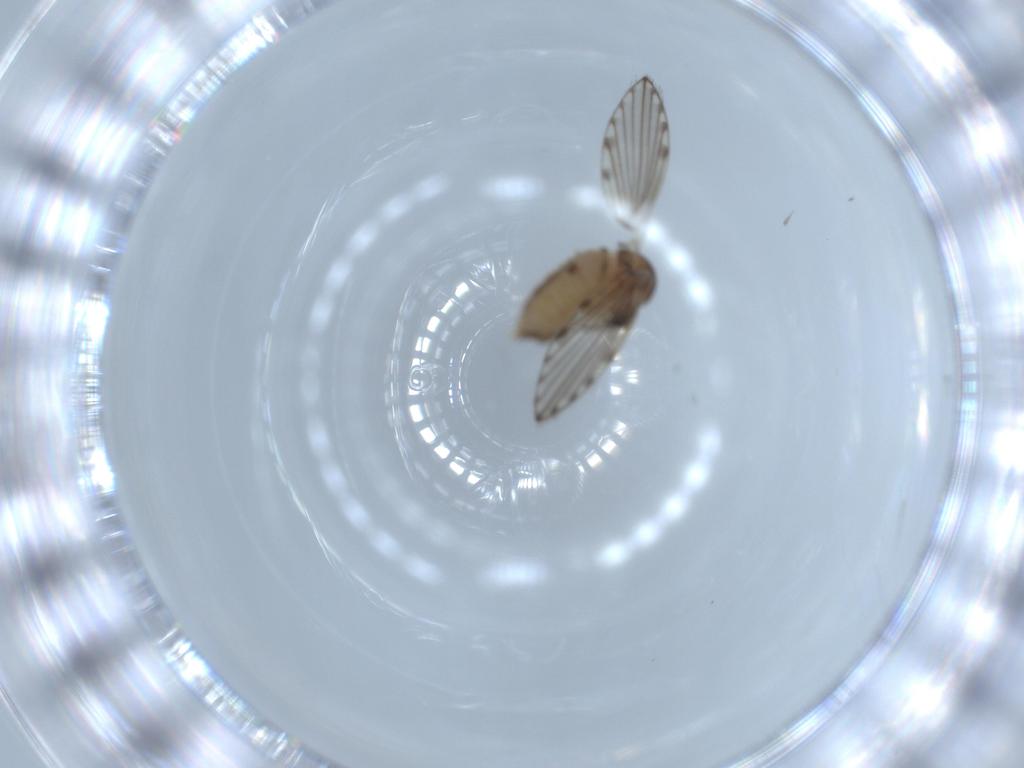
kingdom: Animalia
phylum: Arthropoda
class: Insecta
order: Diptera
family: Psychodidae
